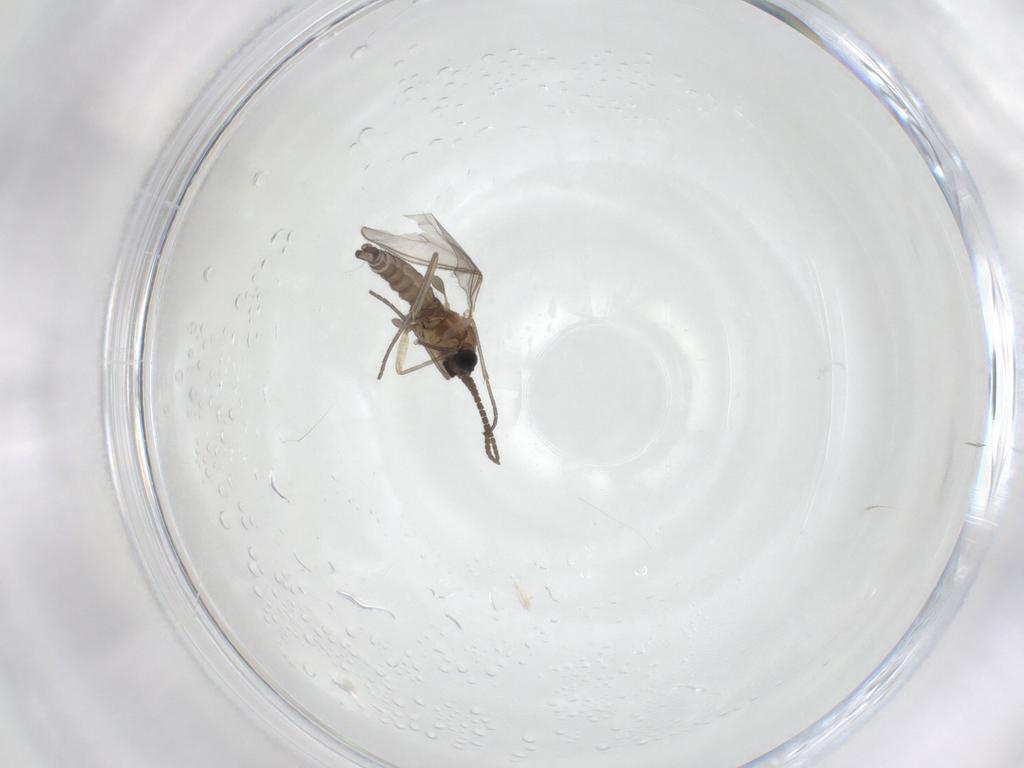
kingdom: Animalia
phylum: Arthropoda
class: Insecta
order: Diptera
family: Sciaridae
